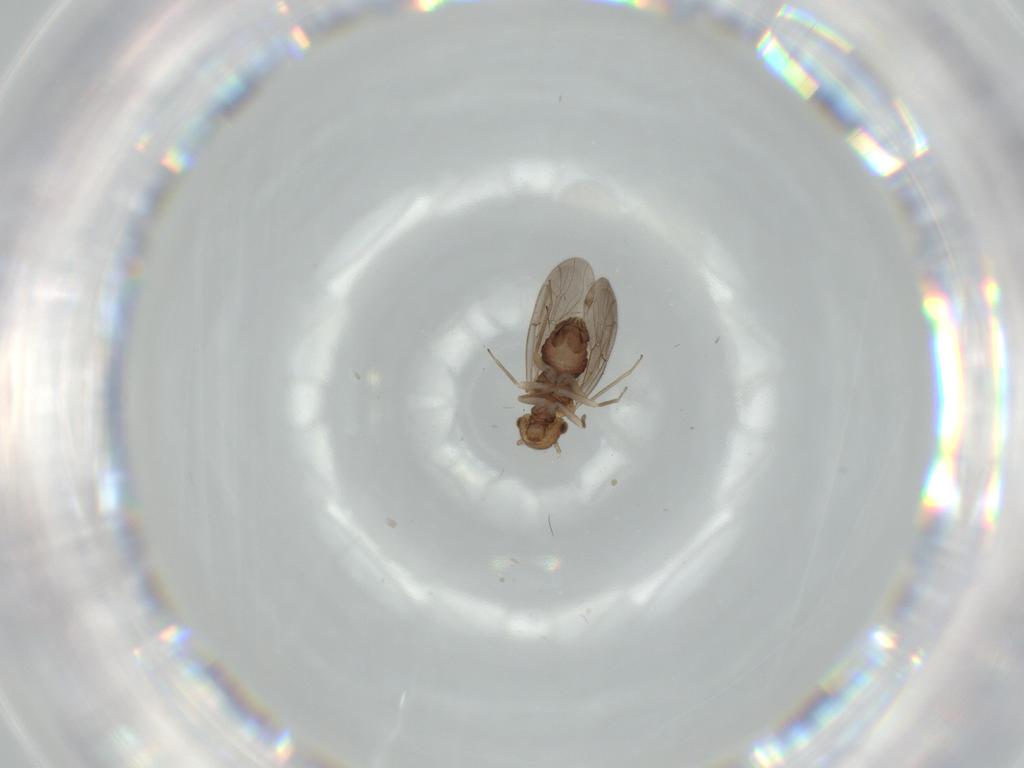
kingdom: Animalia
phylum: Arthropoda
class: Insecta
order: Psocodea
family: Ectopsocidae
